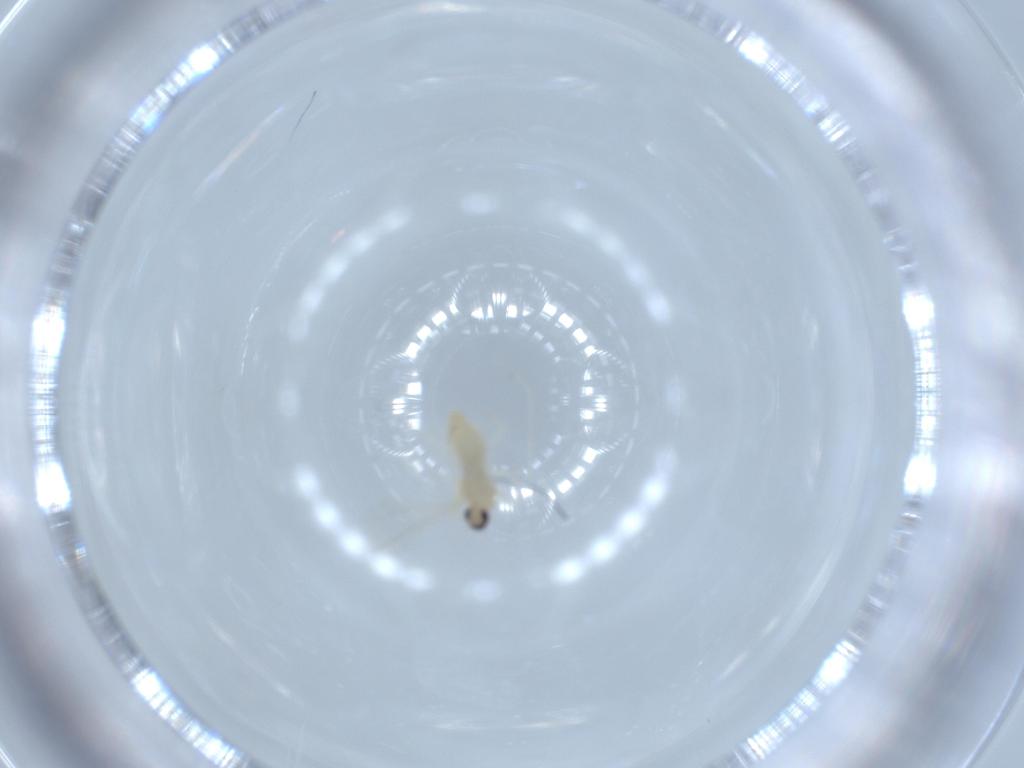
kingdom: Animalia
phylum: Arthropoda
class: Insecta
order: Diptera
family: Cecidomyiidae
